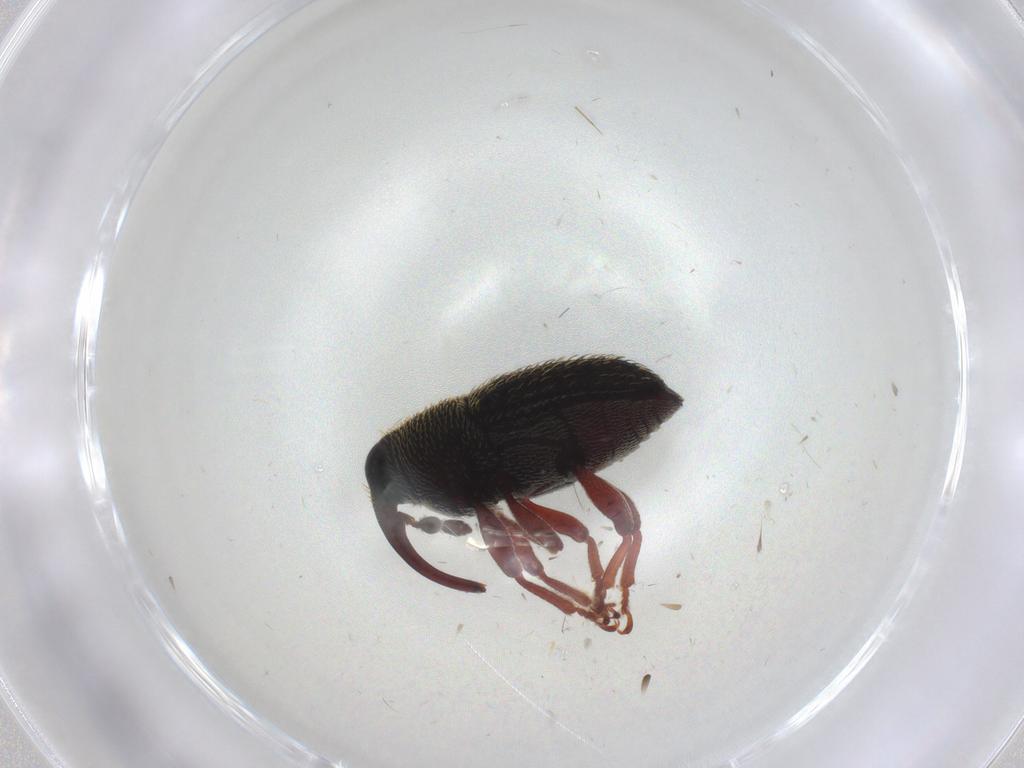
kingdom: Animalia
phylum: Arthropoda
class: Insecta
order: Coleoptera
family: Curculionidae
